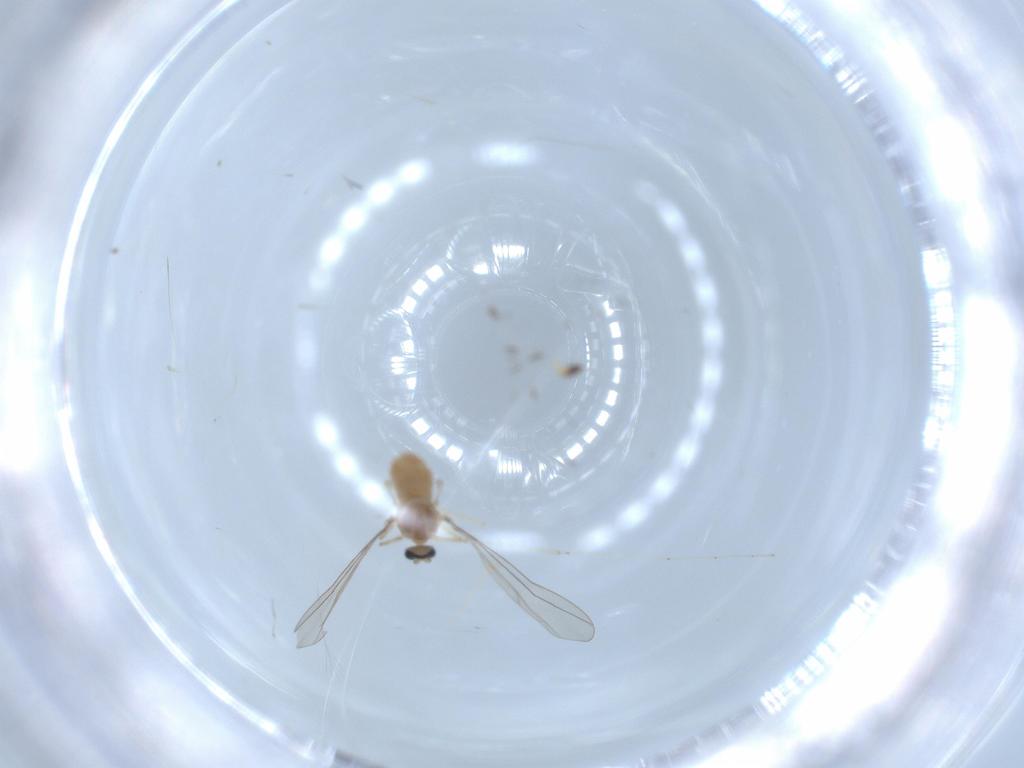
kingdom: Animalia
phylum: Arthropoda
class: Insecta
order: Diptera
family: Cecidomyiidae
